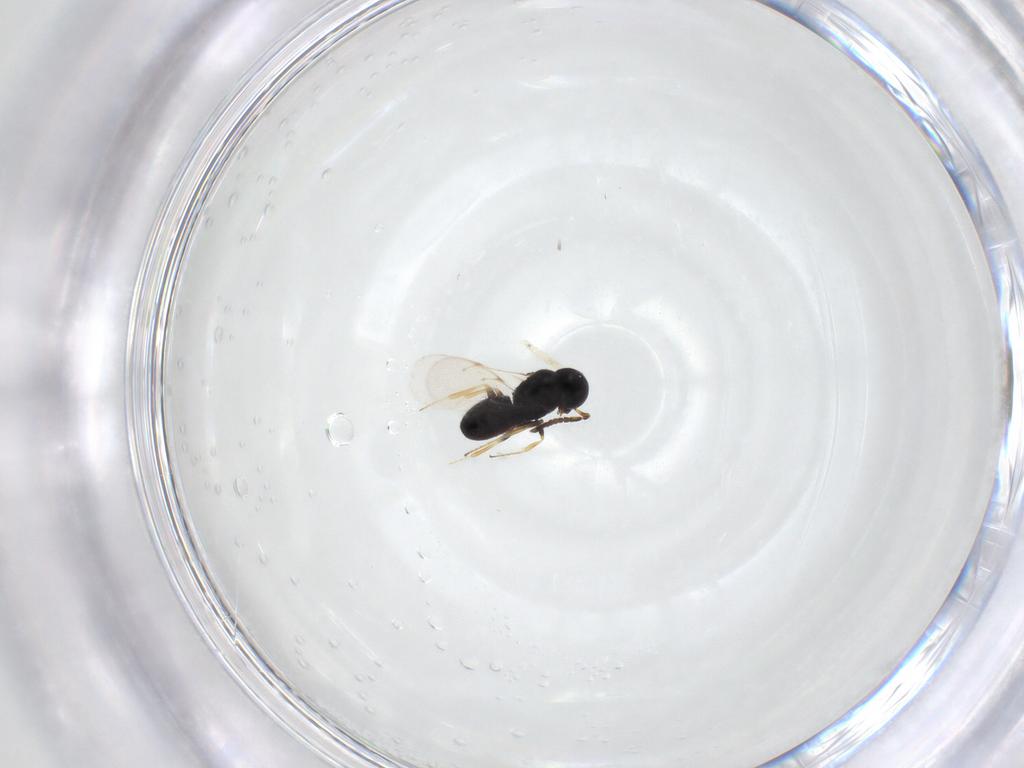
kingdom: Animalia
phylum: Arthropoda
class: Insecta
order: Hymenoptera
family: Scelionidae
